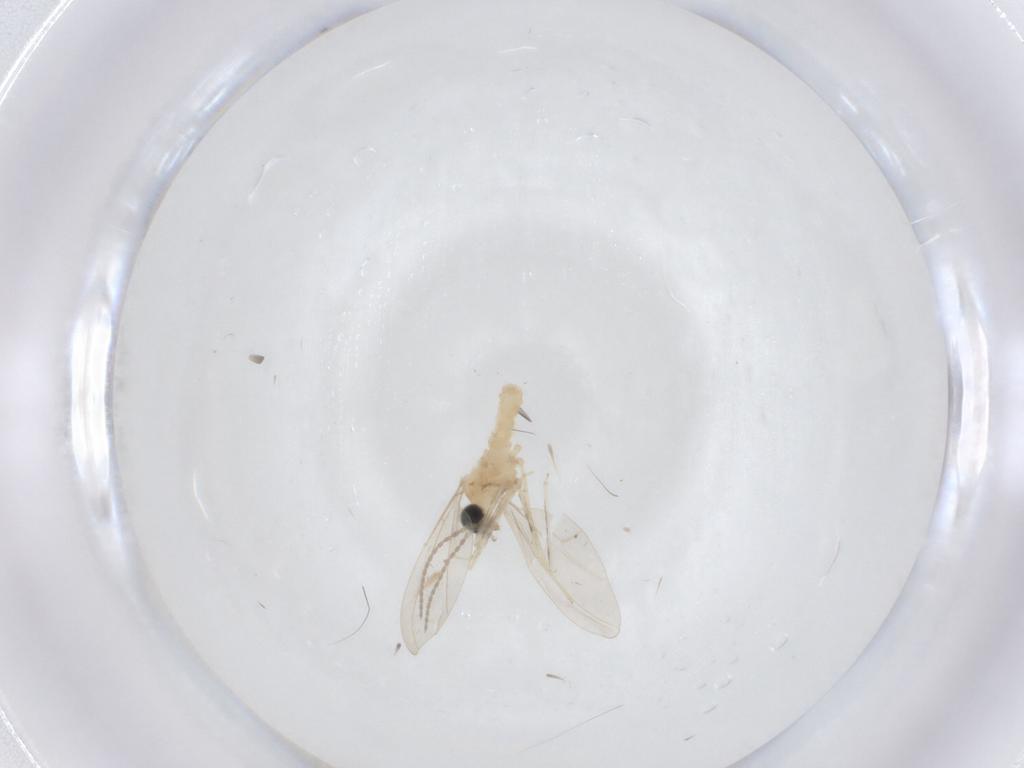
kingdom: Animalia
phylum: Arthropoda
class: Insecta
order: Diptera
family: Cecidomyiidae
